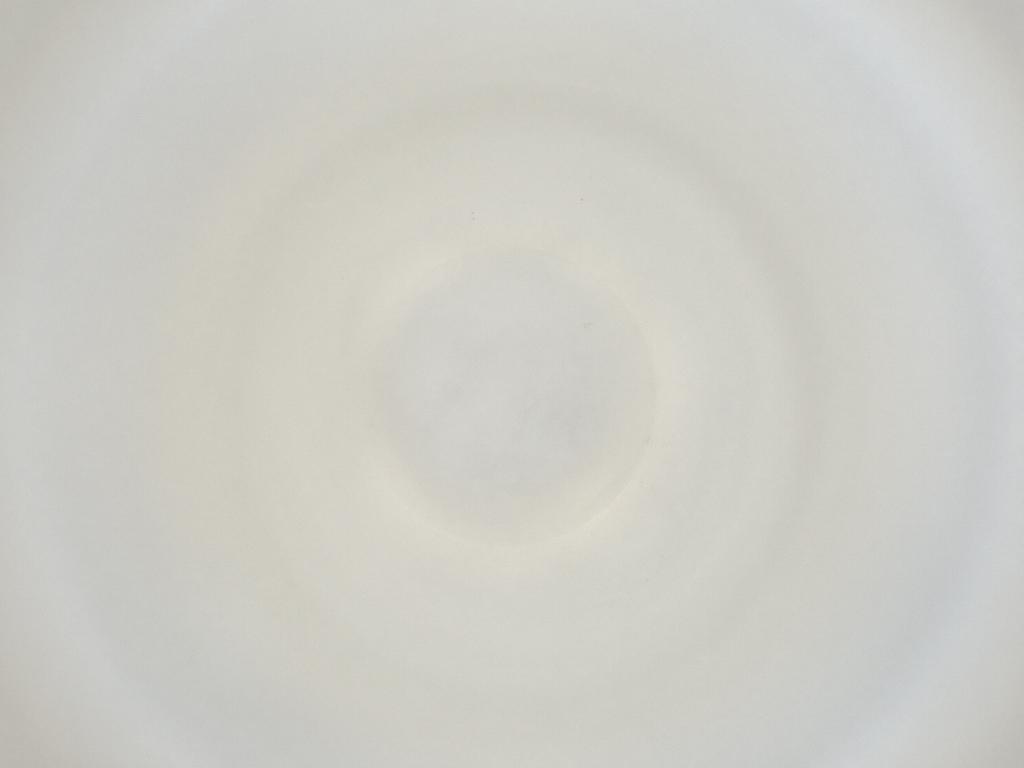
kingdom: Animalia
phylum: Arthropoda
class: Insecta
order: Diptera
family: Cecidomyiidae
